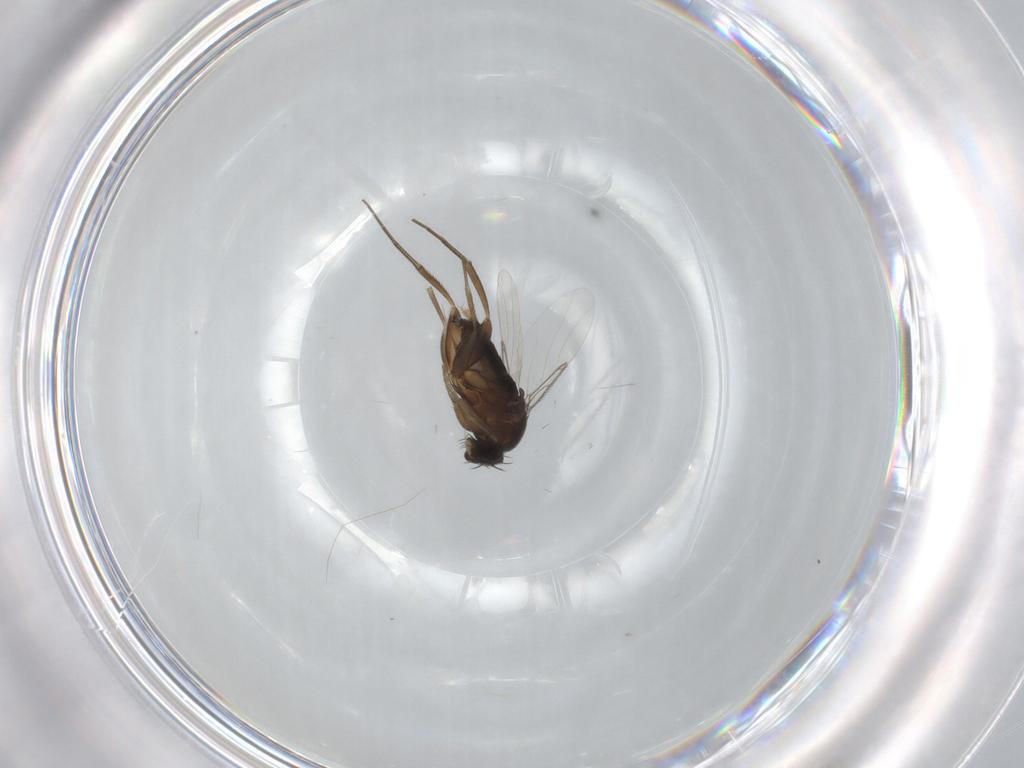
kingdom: Animalia
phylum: Arthropoda
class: Insecta
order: Diptera
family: Phoridae
